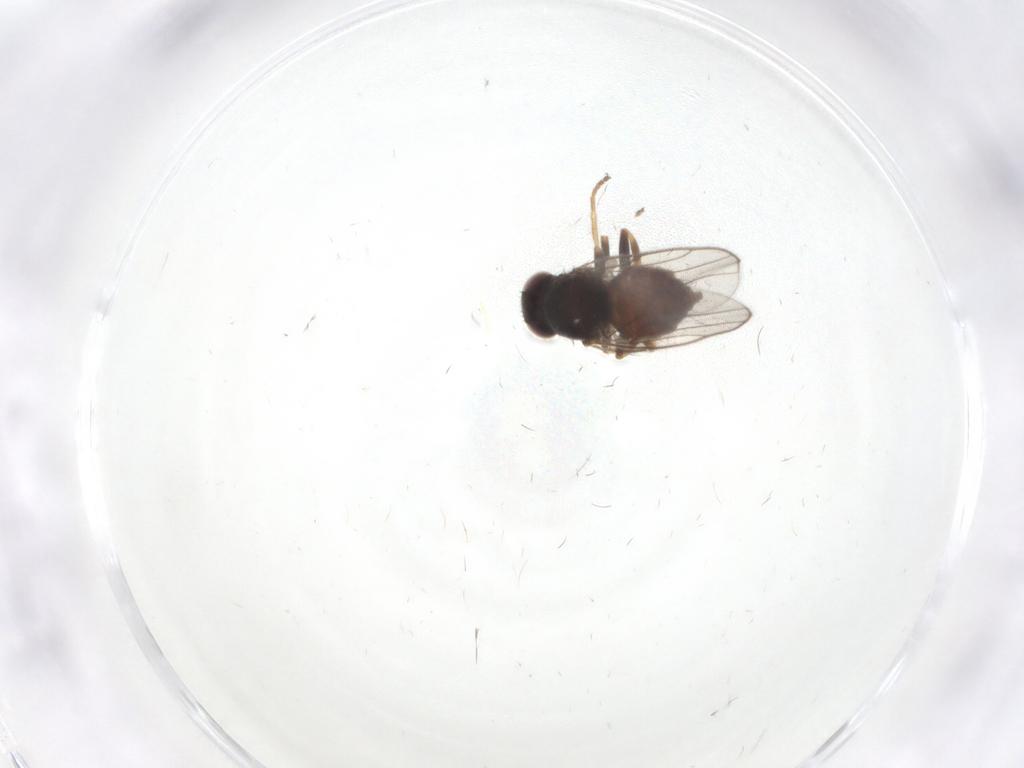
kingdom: Animalia
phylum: Arthropoda
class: Insecta
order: Diptera
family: Chloropidae
